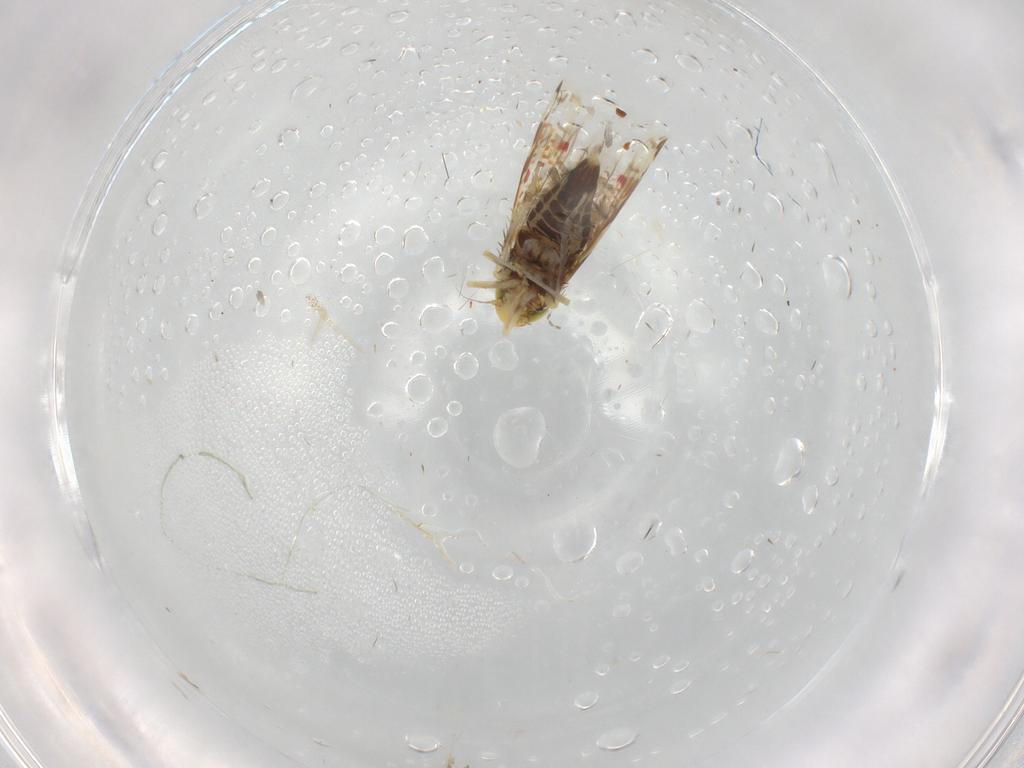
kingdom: Animalia
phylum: Arthropoda
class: Insecta
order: Hemiptera
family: Cicadellidae
